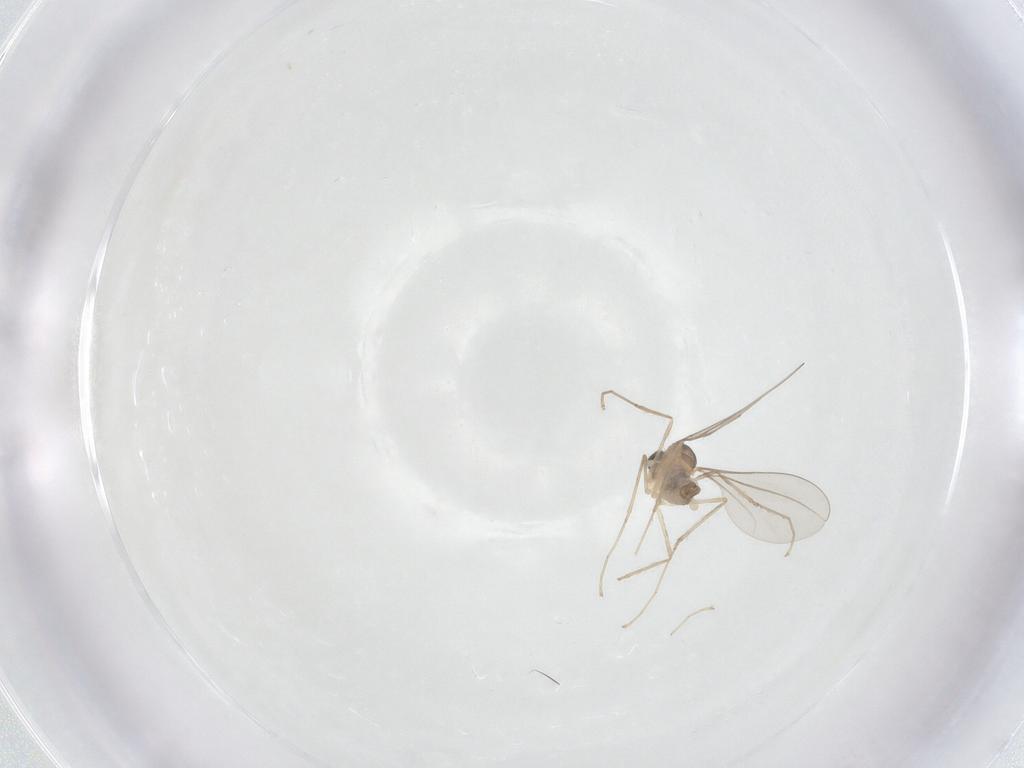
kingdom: Animalia
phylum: Arthropoda
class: Insecta
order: Diptera
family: Cecidomyiidae
